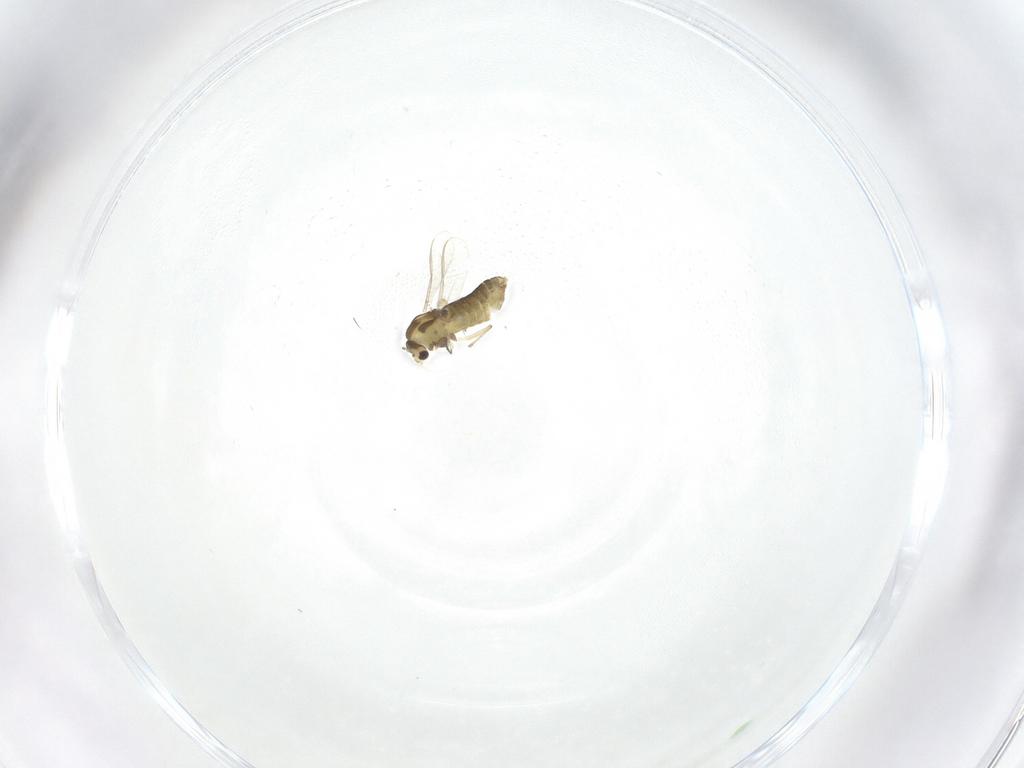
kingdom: Animalia
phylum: Arthropoda
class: Insecta
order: Diptera
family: Chironomidae
